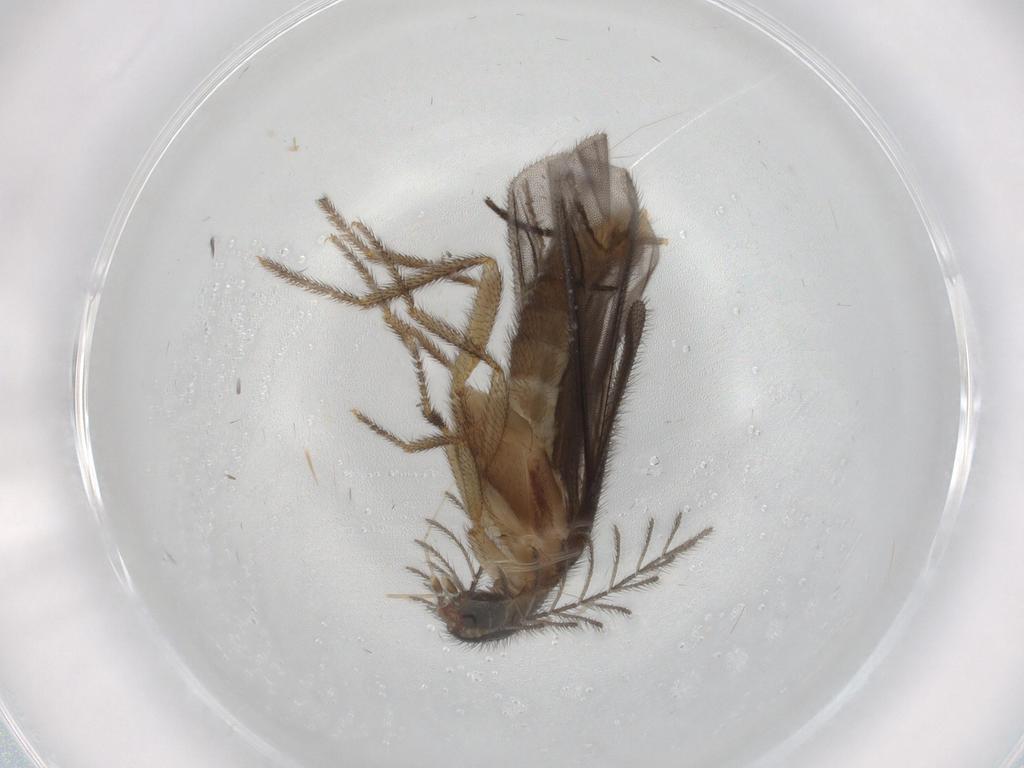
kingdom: Animalia
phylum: Arthropoda
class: Insecta
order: Coleoptera
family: Phengodidae
